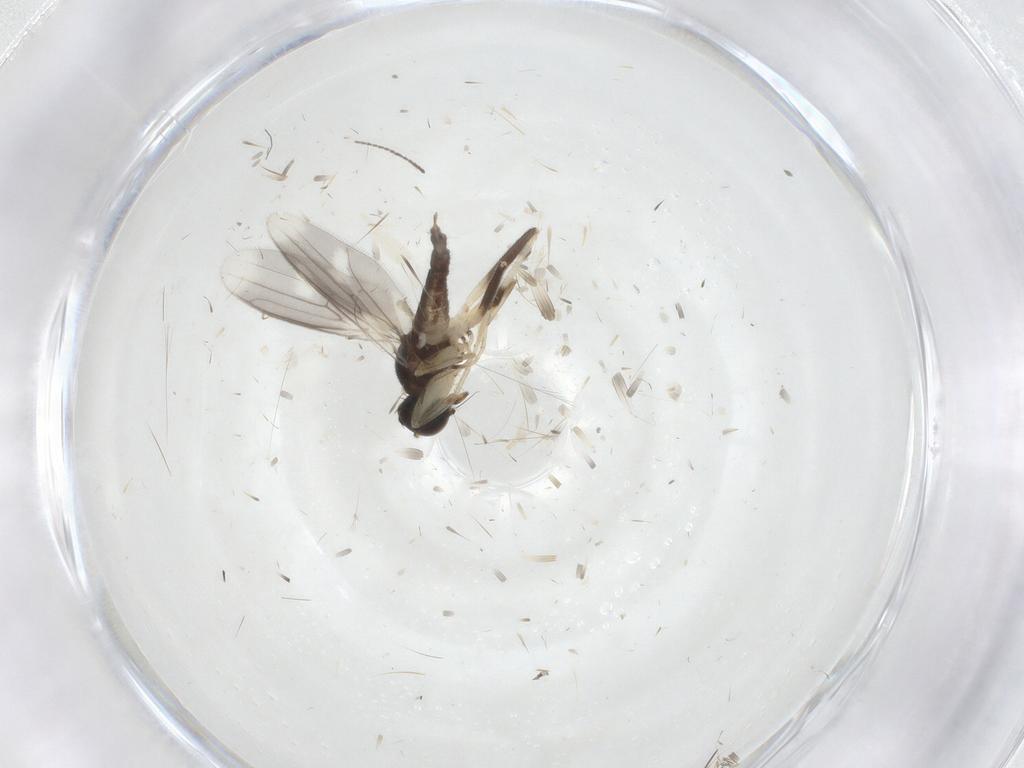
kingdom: Animalia
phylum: Arthropoda
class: Insecta
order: Diptera
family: Hybotidae
